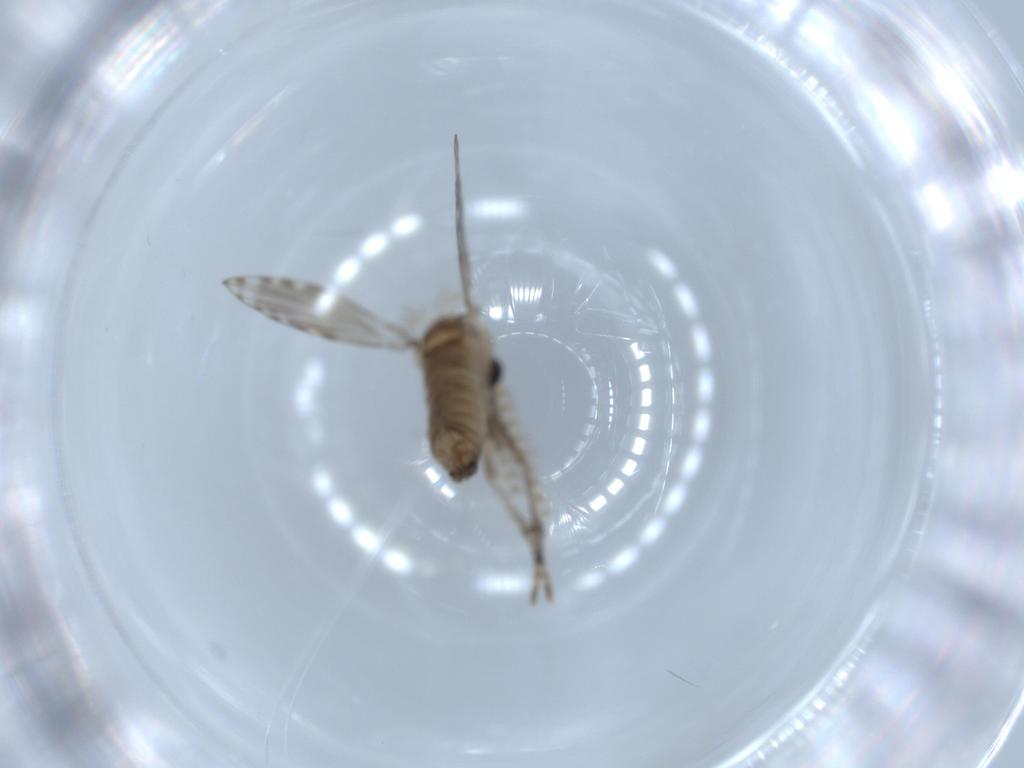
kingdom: Animalia
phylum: Arthropoda
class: Insecta
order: Diptera
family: Psychodidae
